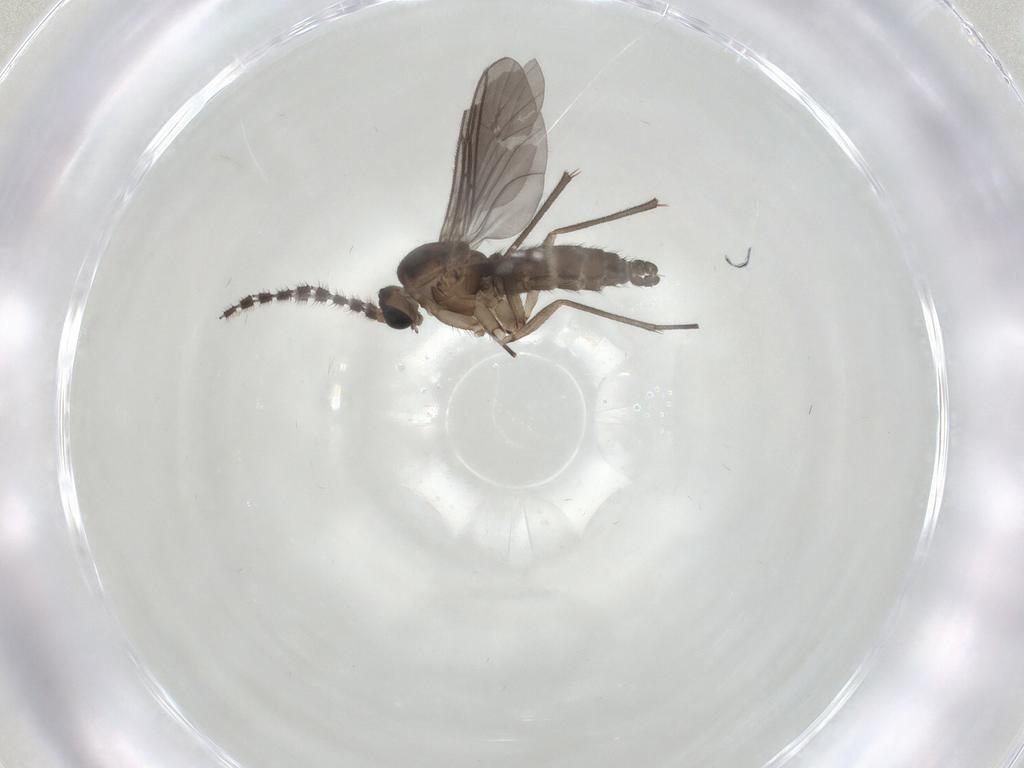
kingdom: Animalia
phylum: Arthropoda
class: Insecta
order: Diptera
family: Sciaridae
